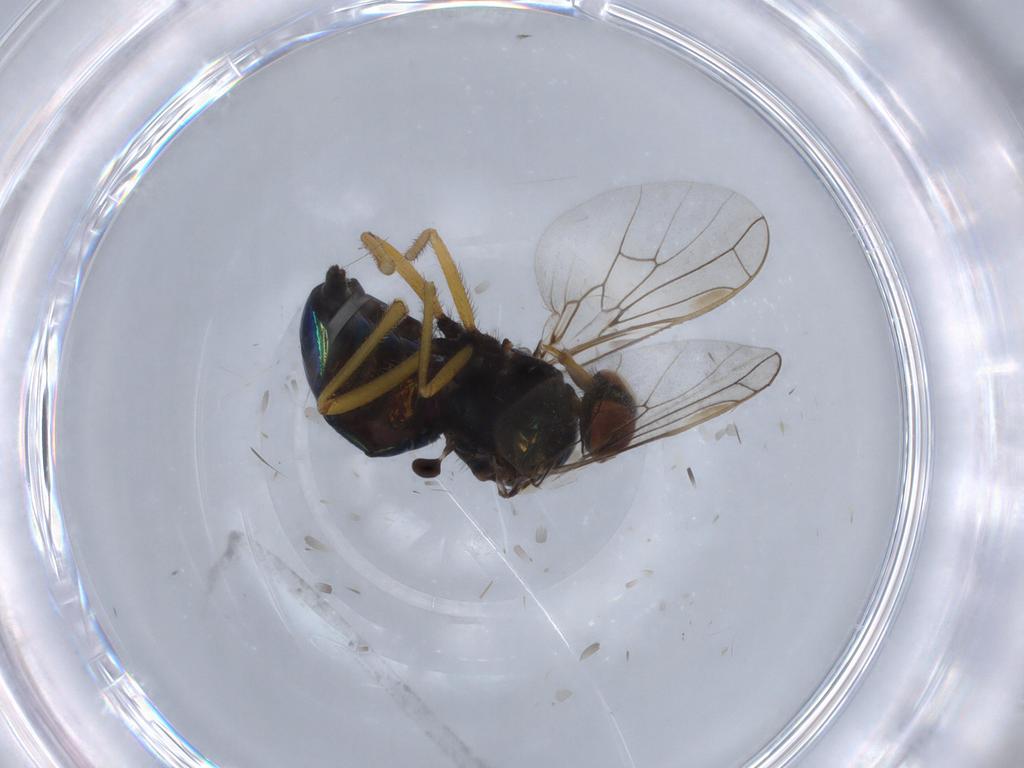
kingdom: Animalia
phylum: Arthropoda
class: Insecta
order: Diptera
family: Stratiomyidae
